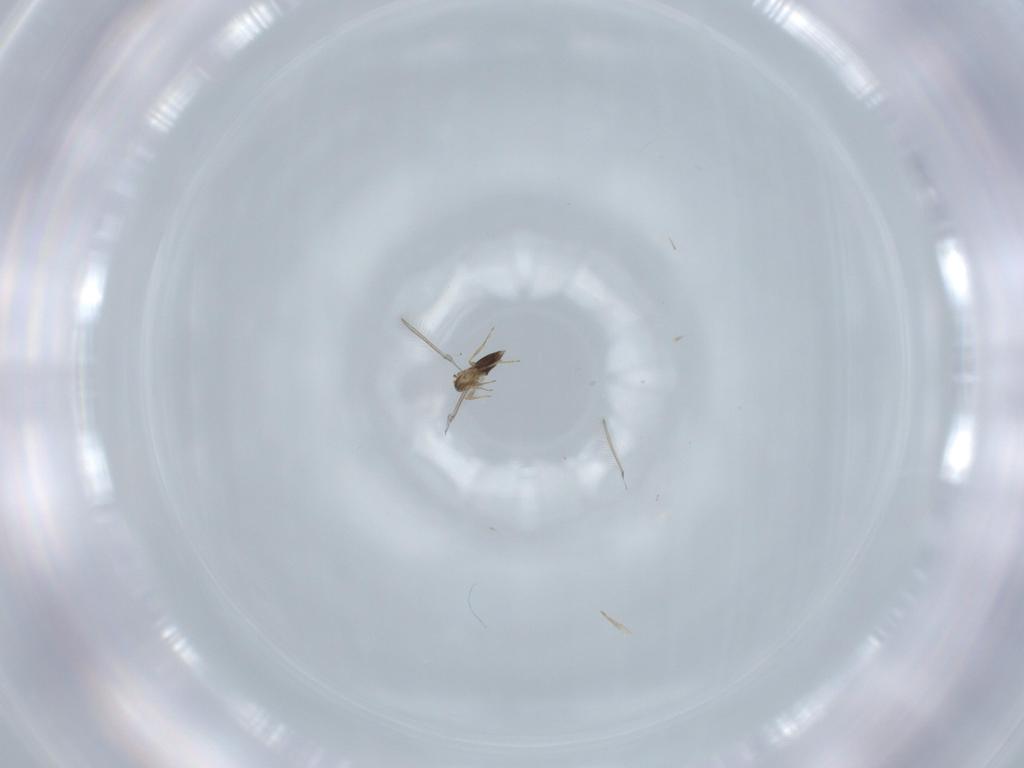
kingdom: Animalia
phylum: Arthropoda
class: Insecta
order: Hymenoptera
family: Mymaridae
